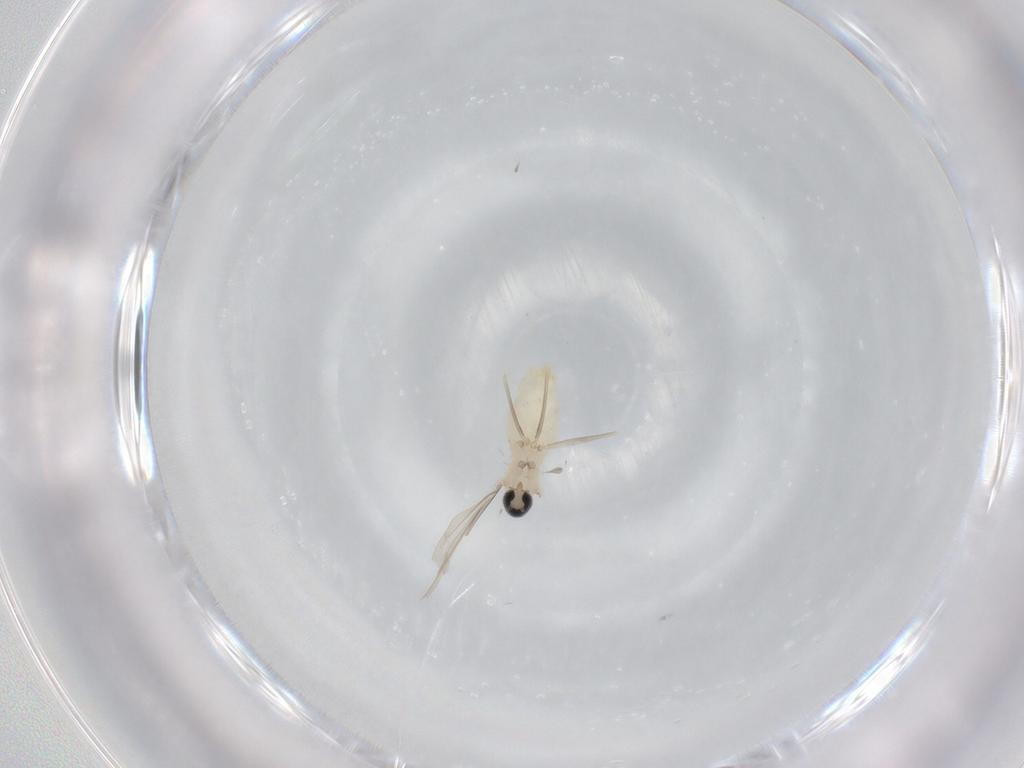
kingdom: Animalia
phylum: Arthropoda
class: Insecta
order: Diptera
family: Cecidomyiidae
